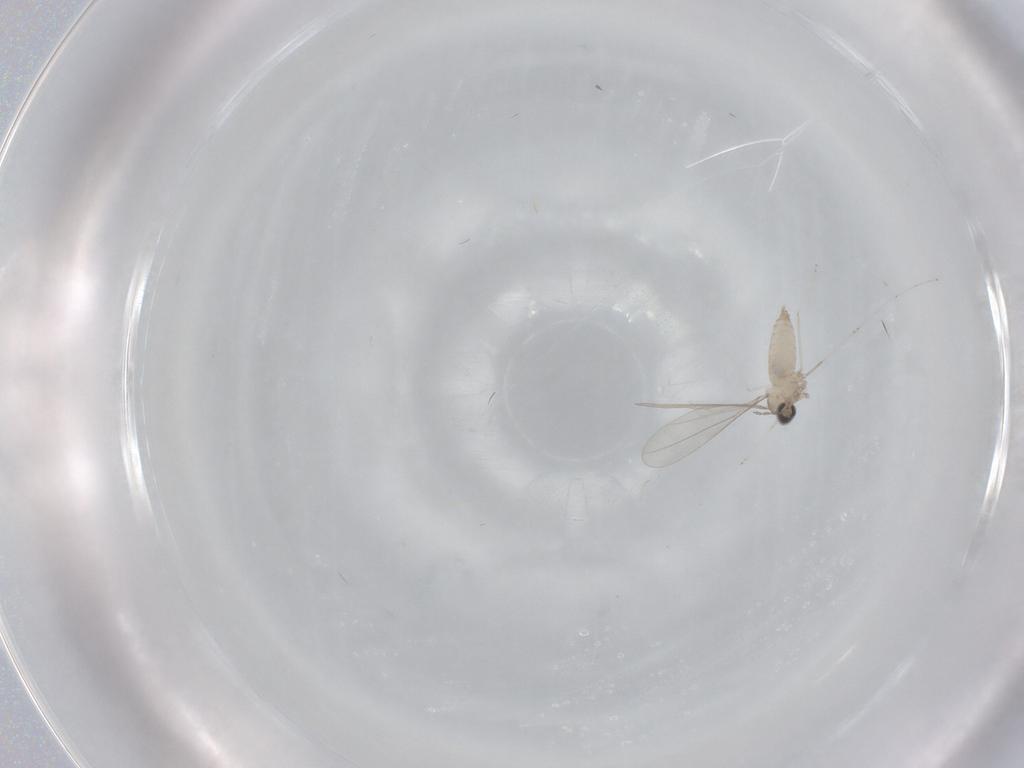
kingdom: Animalia
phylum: Arthropoda
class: Insecta
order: Diptera
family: Chironomidae
